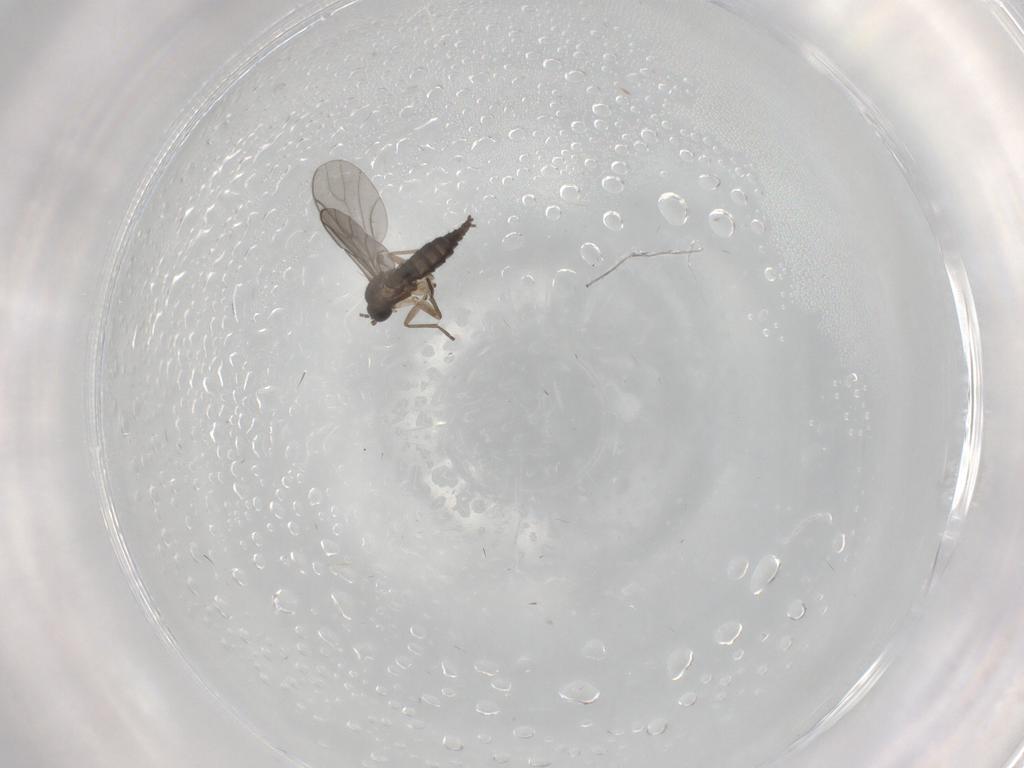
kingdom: Animalia
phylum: Arthropoda
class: Insecta
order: Diptera
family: Sciaridae
